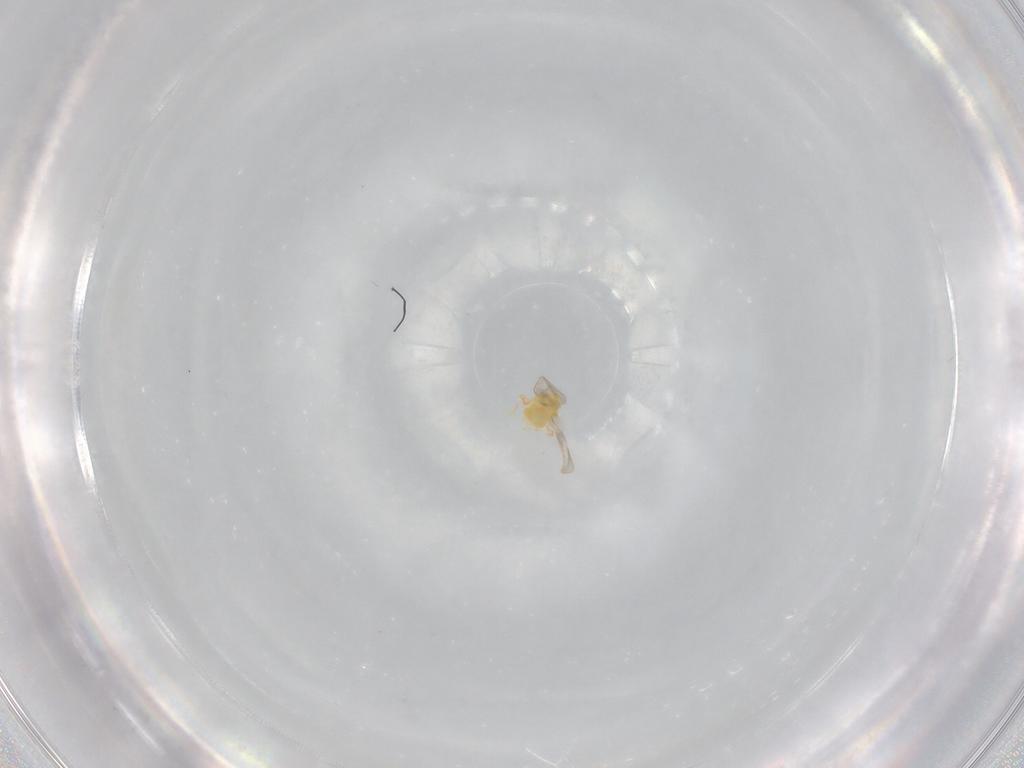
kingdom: Animalia
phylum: Arthropoda
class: Insecta
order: Hemiptera
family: Aleyrodidae
